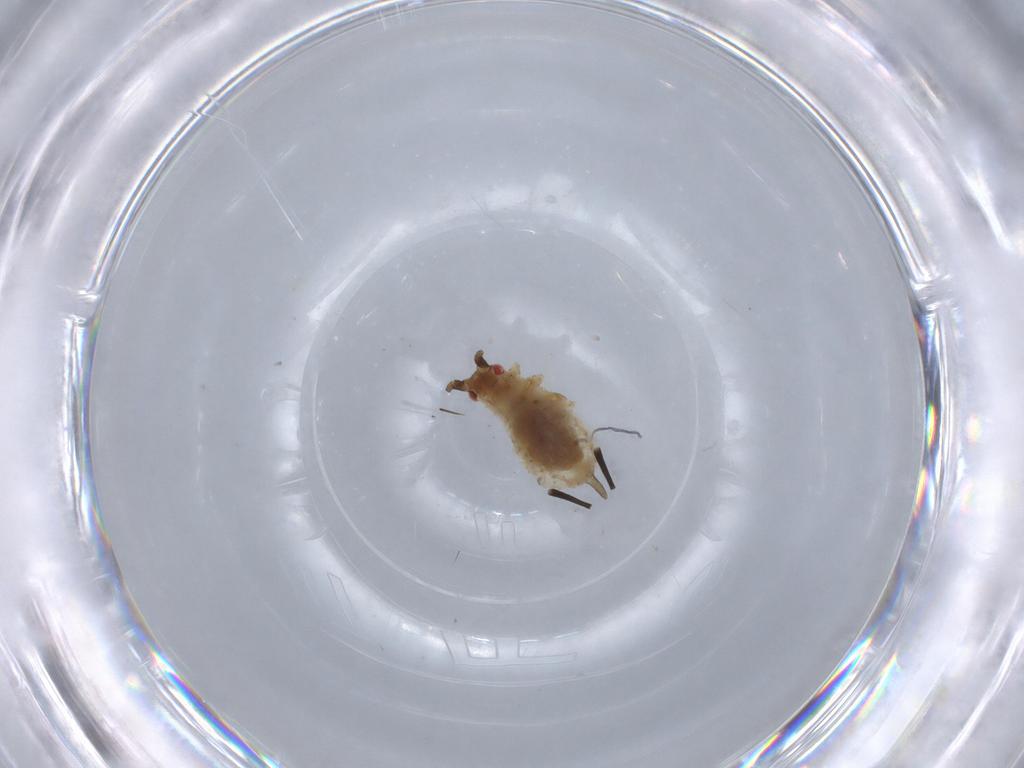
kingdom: Animalia
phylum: Arthropoda
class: Insecta
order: Hemiptera
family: Aphididae
